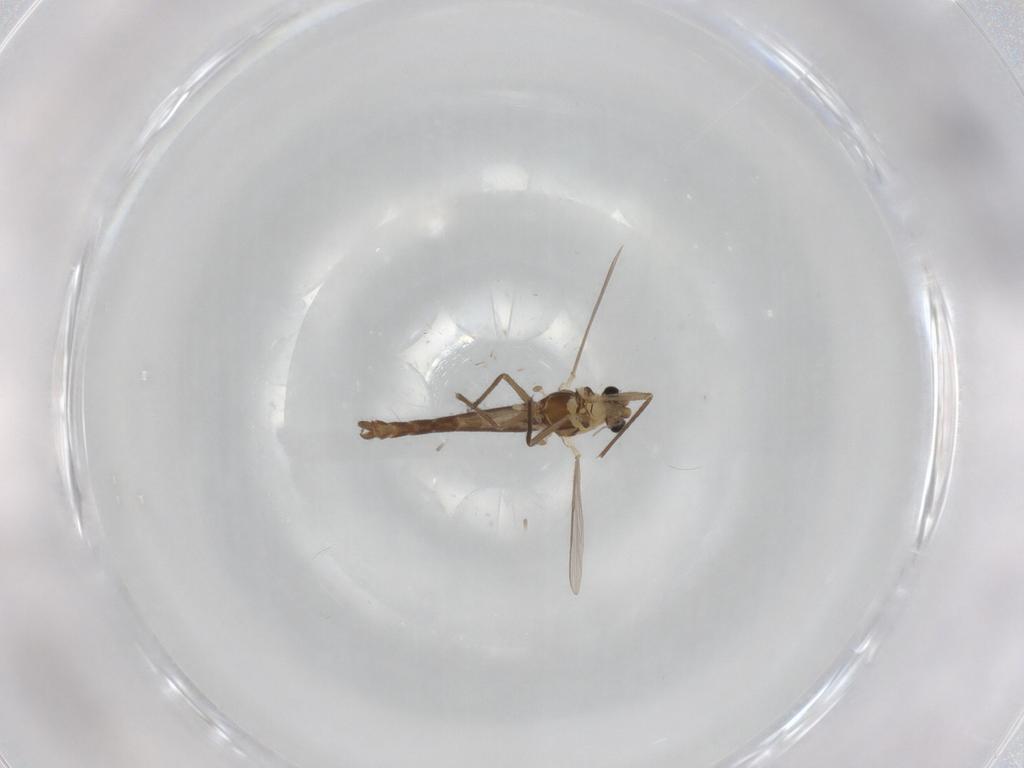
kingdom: Animalia
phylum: Arthropoda
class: Insecta
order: Diptera
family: Chironomidae
